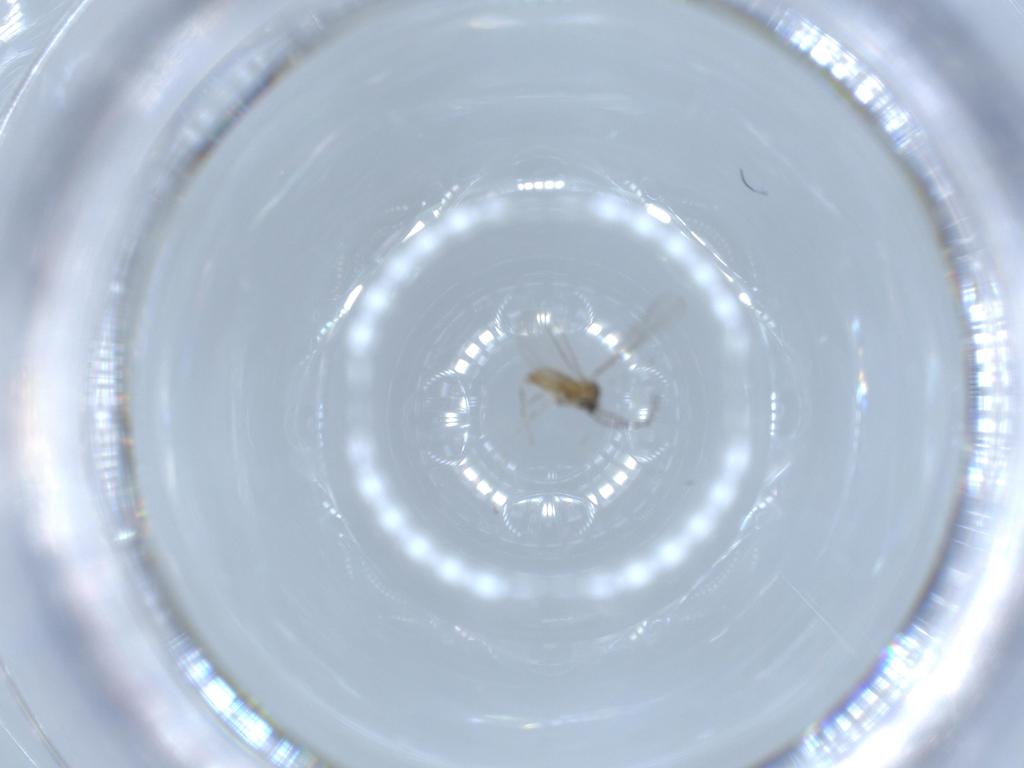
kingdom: Animalia
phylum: Arthropoda
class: Insecta
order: Diptera
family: Cecidomyiidae
